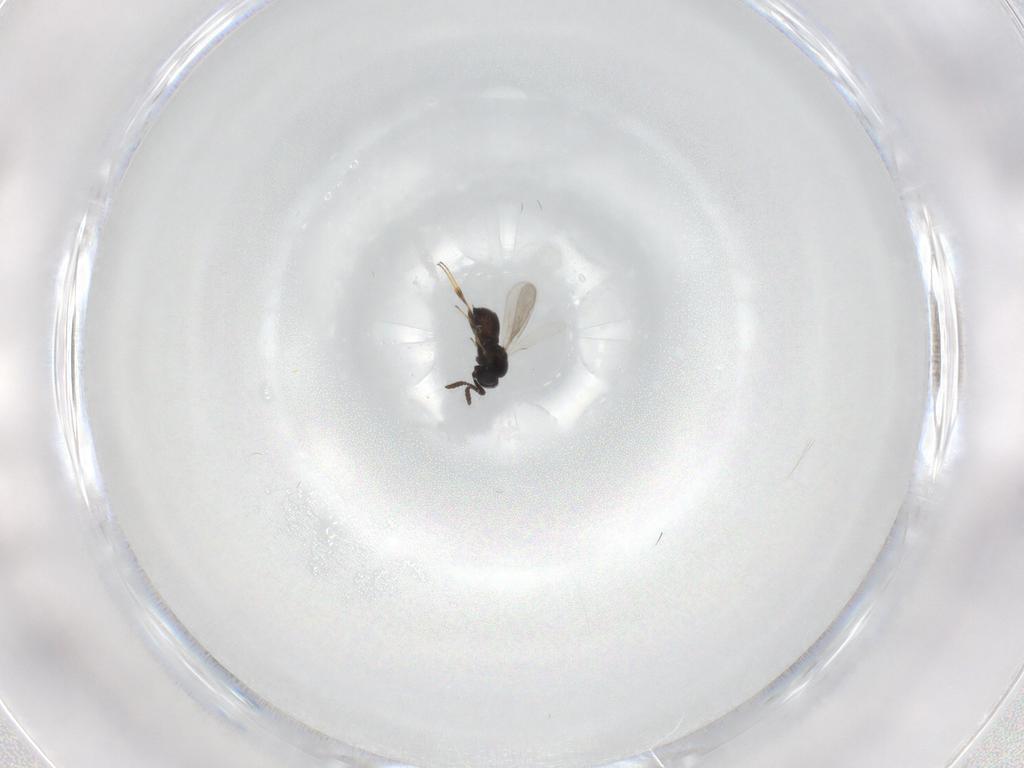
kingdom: Animalia
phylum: Arthropoda
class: Insecta
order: Hymenoptera
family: Scelionidae
